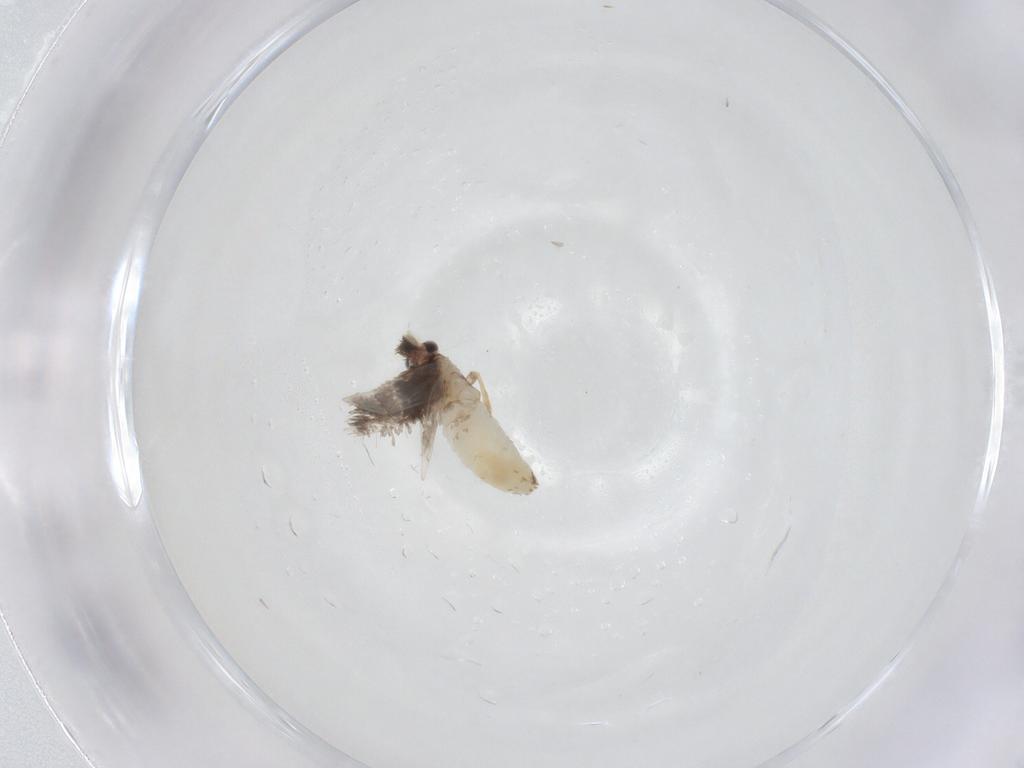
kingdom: Animalia
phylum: Arthropoda
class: Insecta
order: Lepidoptera
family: Nepticulidae
